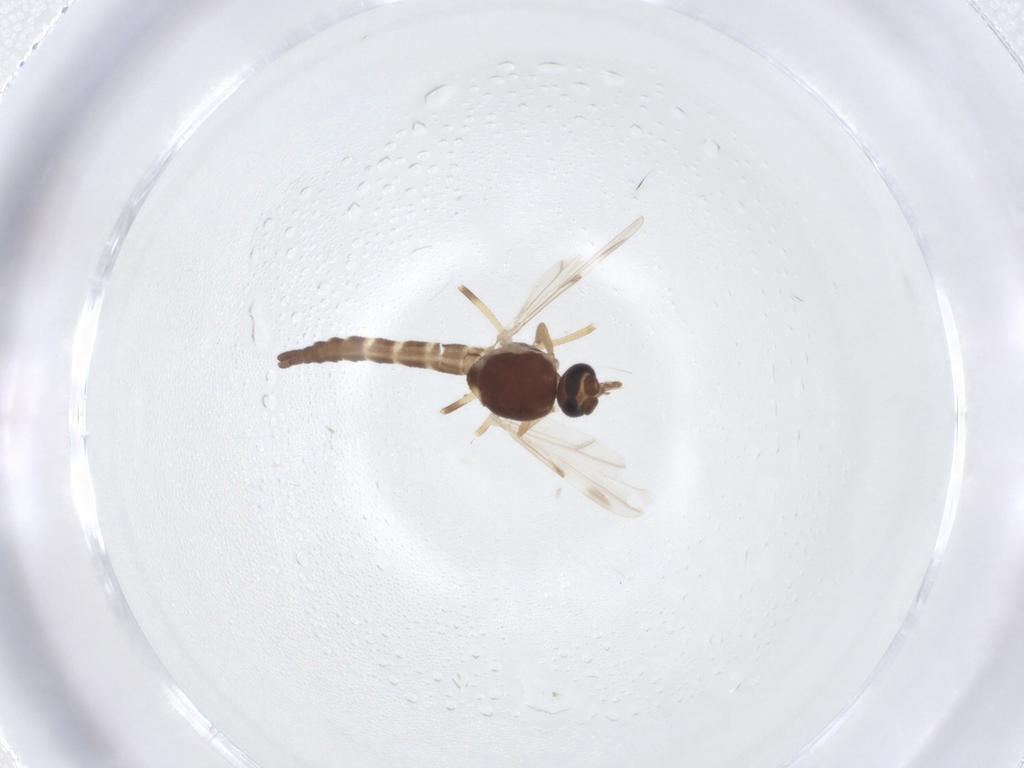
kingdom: Animalia
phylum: Arthropoda
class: Insecta
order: Diptera
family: Ceratopogonidae
